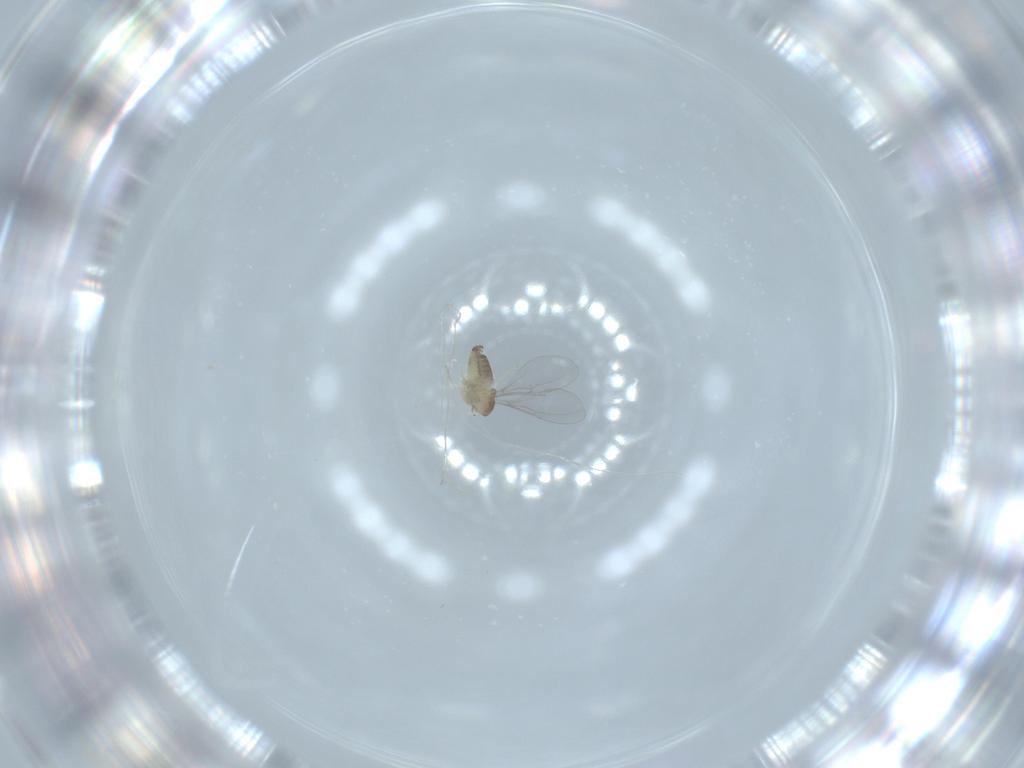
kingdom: Animalia
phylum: Arthropoda
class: Insecta
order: Diptera
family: Cecidomyiidae
